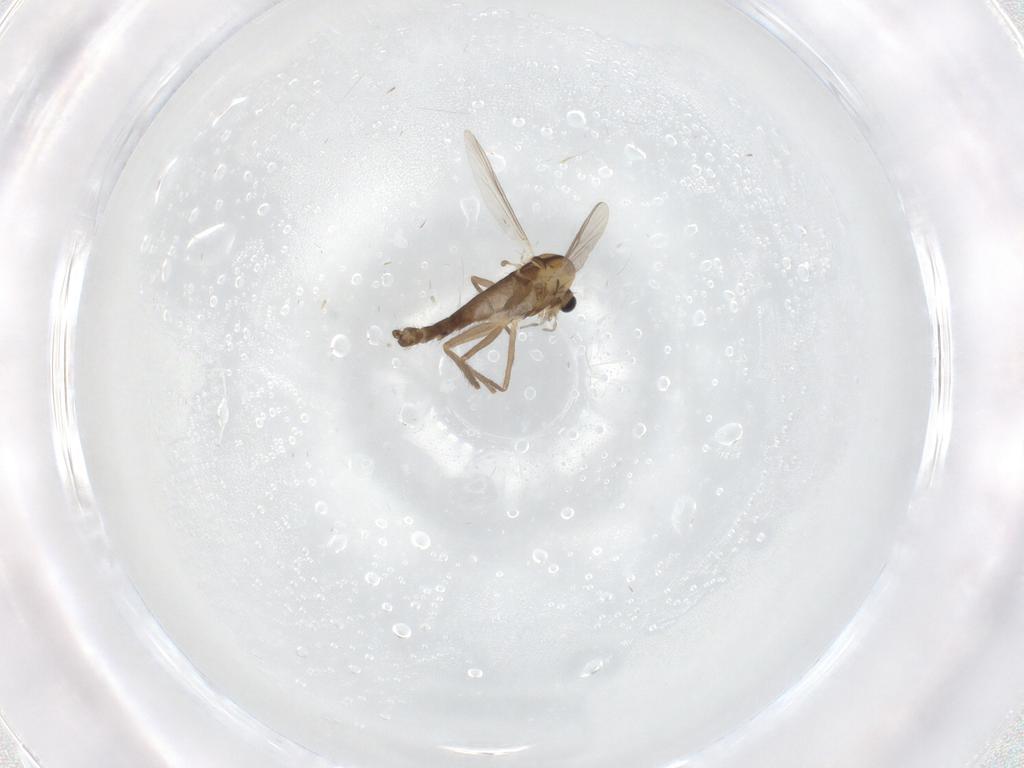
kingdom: Animalia
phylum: Arthropoda
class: Insecta
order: Diptera
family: Chironomidae
